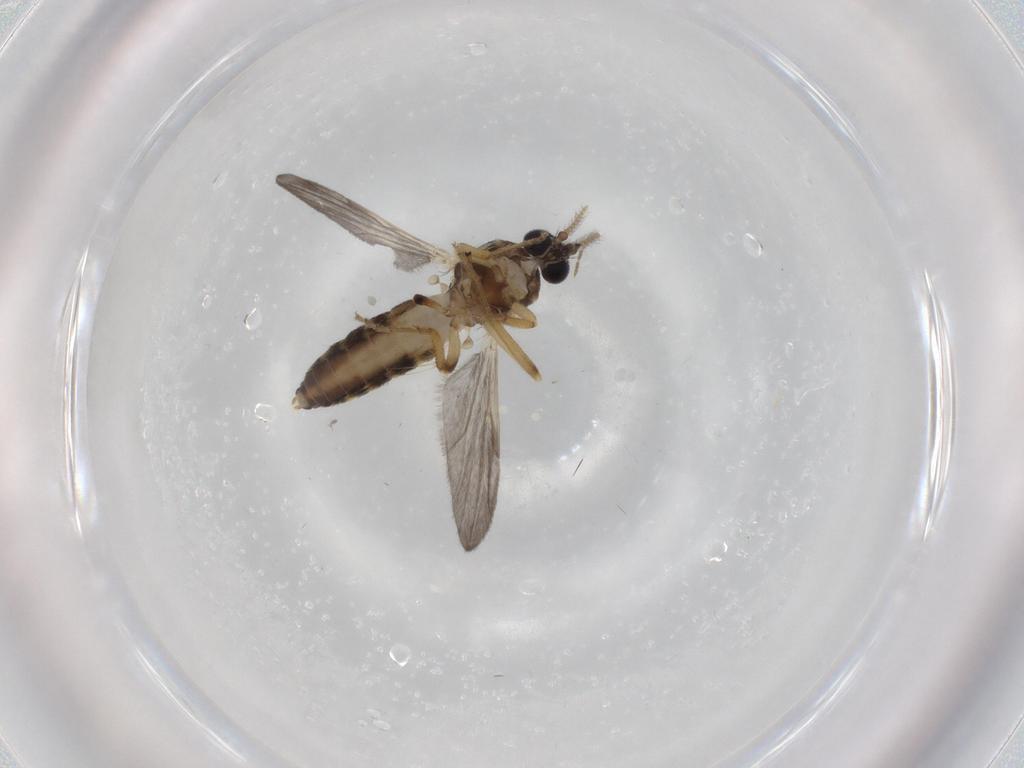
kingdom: Animalia
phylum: Arthropoda
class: Insecta
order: Diptera
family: Ceratopogonidae
